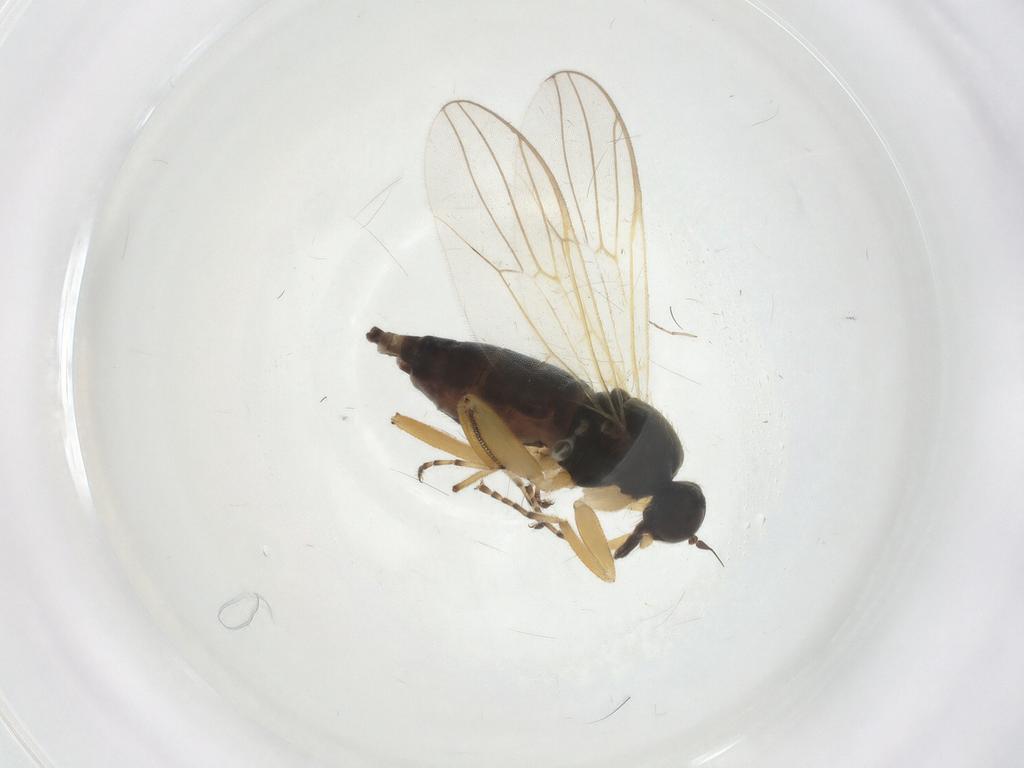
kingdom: Animalia
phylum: Arthropoda
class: Insecta
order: Diptera
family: Hybotidae
